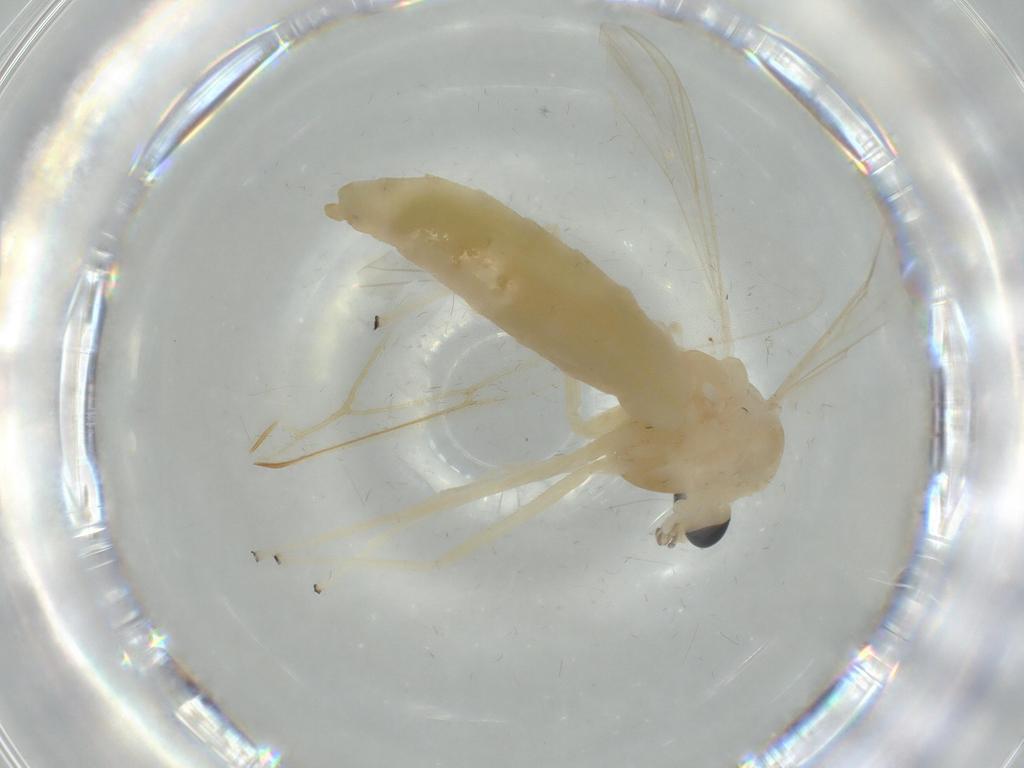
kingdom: Animalia
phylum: Arthropoda
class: Insecta
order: Diptera
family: Chironomidae
